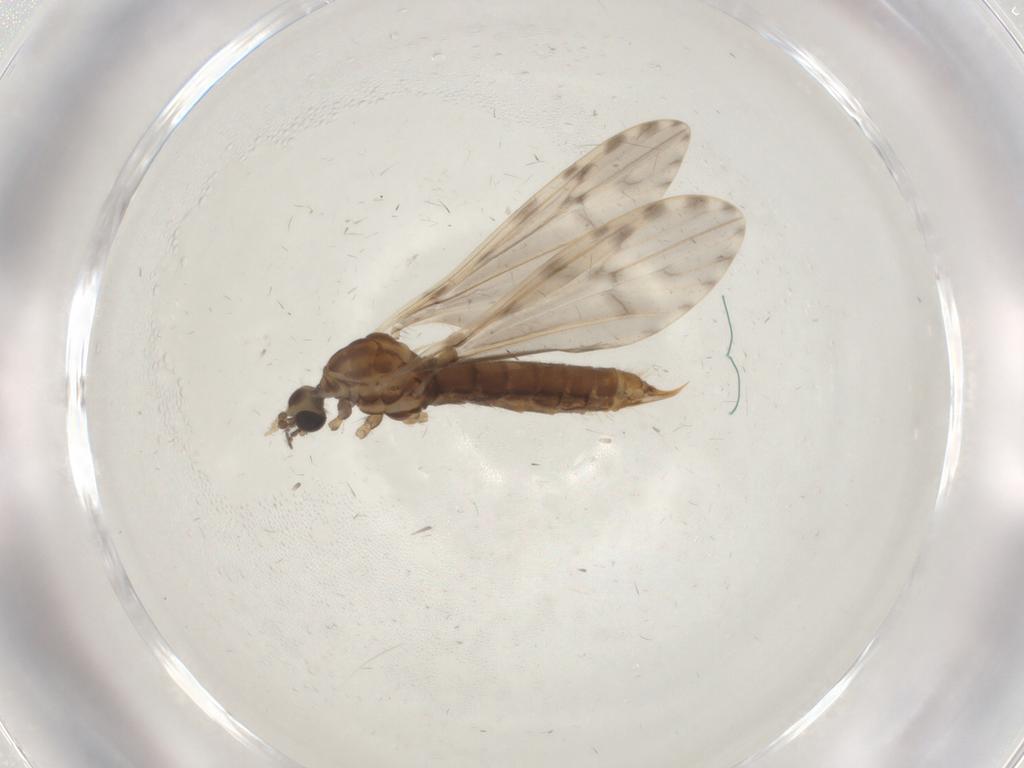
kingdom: Animalia
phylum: Arthropoda
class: Insecta
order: Diptera
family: Limoniidae
